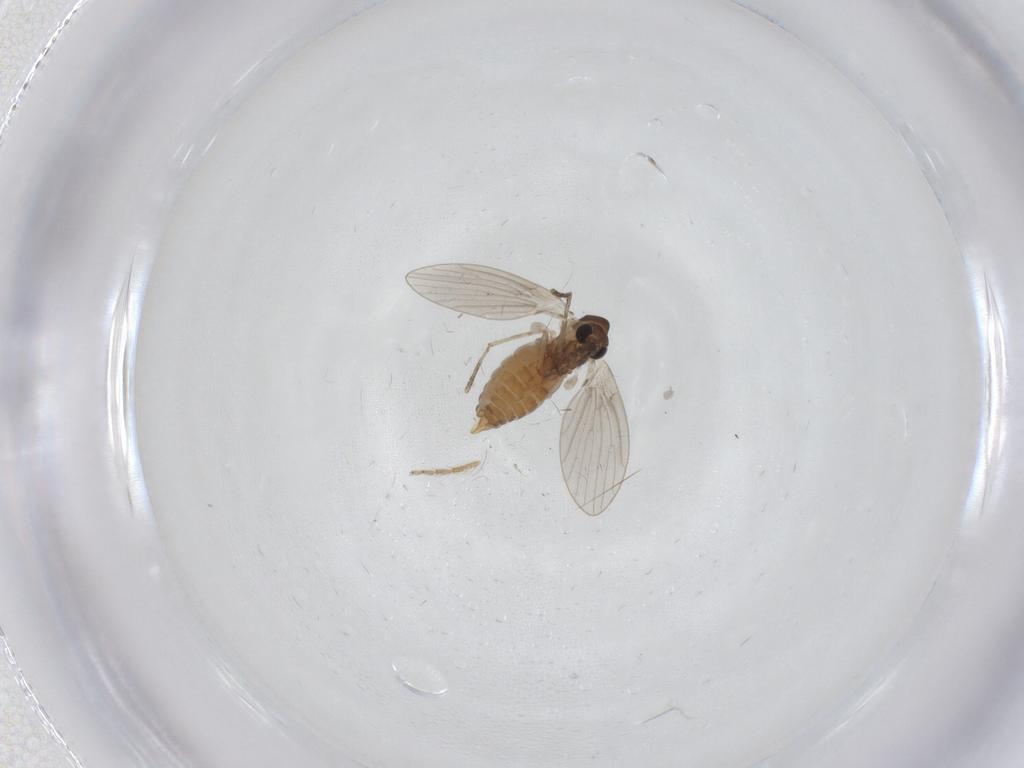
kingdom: Animalia
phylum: Arthropoda
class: Insecta
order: Diptera
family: Ceratopogonidae
